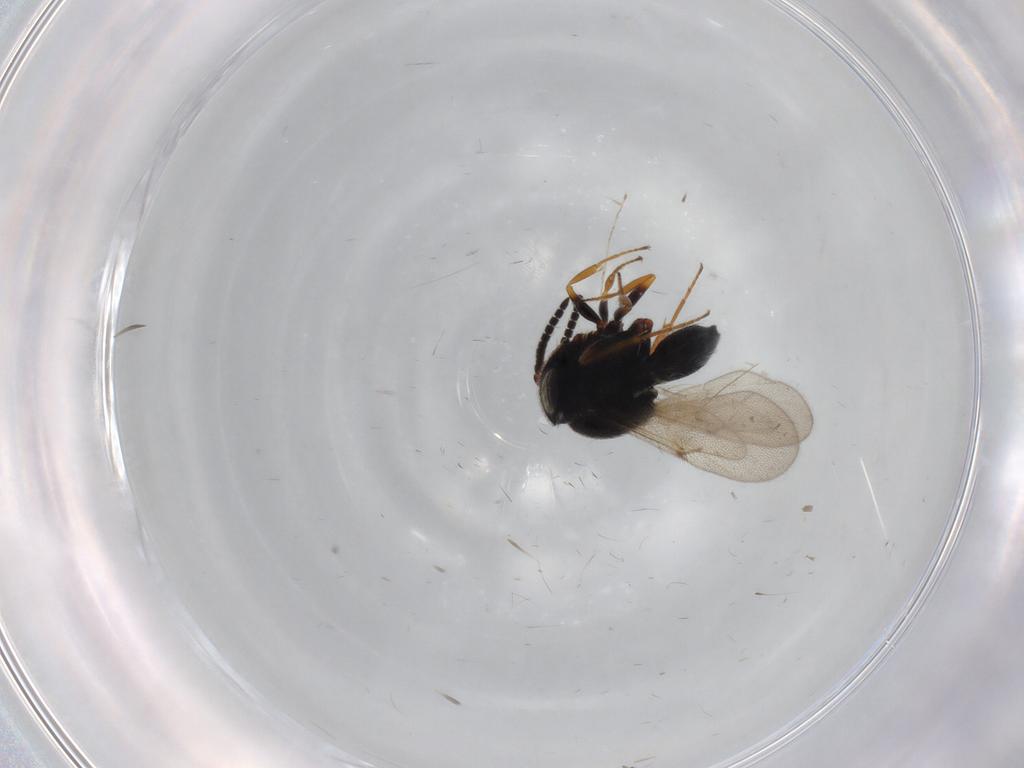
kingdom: Animalia
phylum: Arthropoda
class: Insecta
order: Hymenoptera
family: Scelionidae
